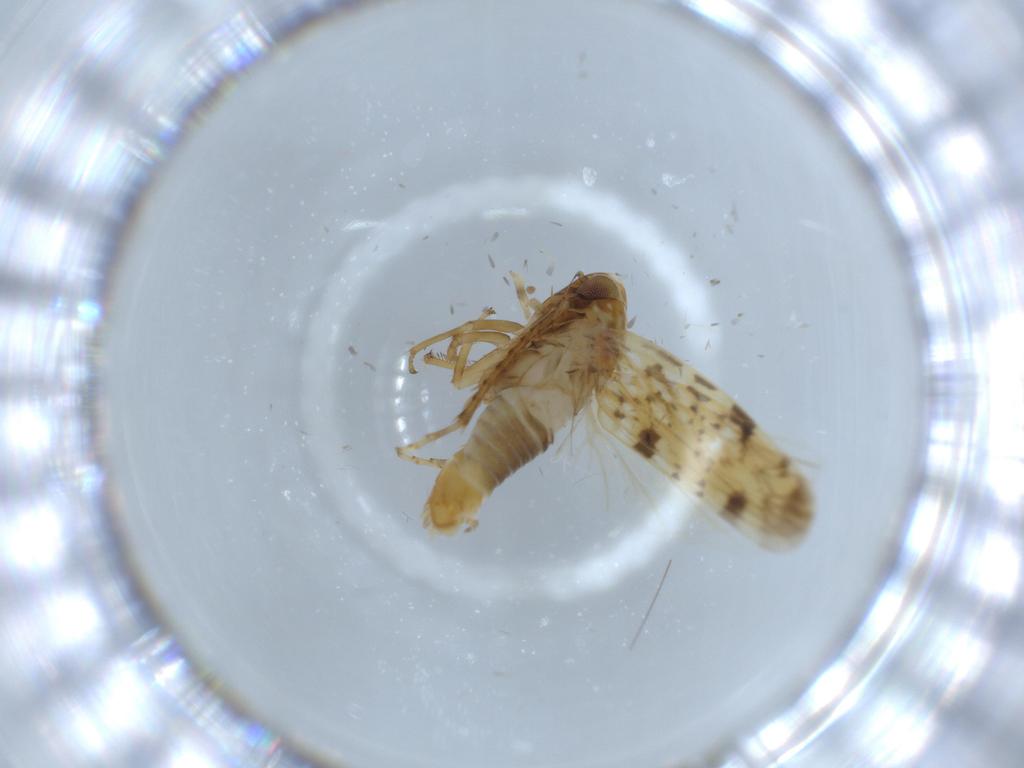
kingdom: Animalia
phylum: Arthropoda
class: Insecta
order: Hemiptera
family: Cicadellidae
